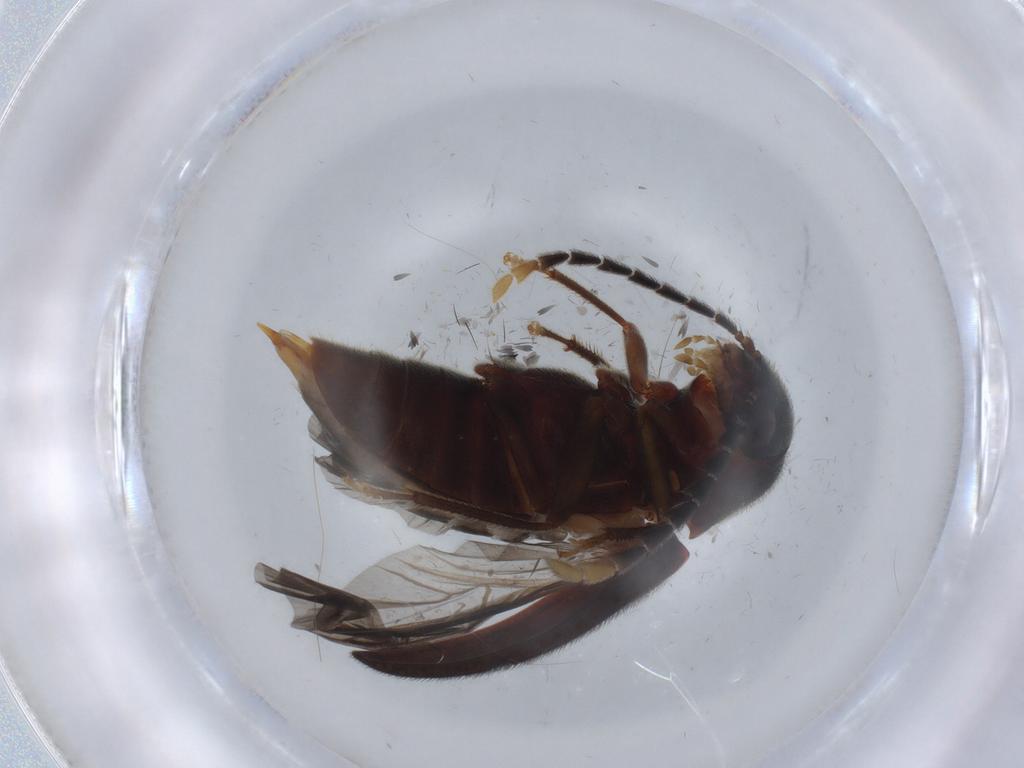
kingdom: Animalia
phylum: Arthropoda
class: Insecta
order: Coleoptera
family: Ptilodactylidae
